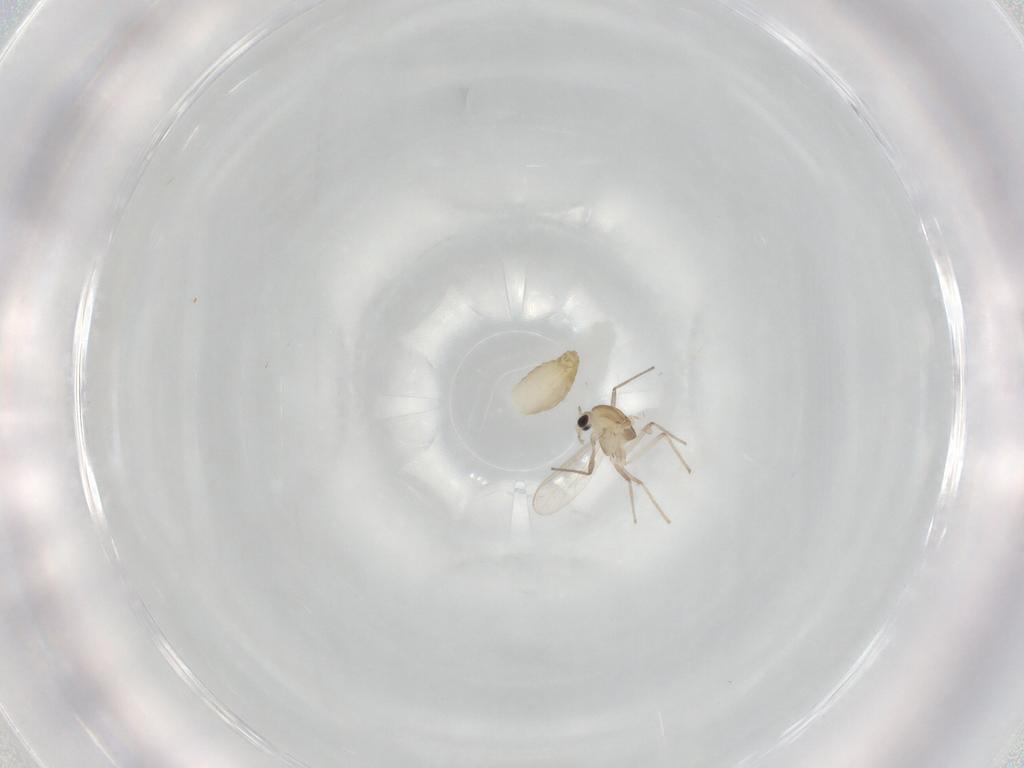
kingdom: Animalia
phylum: Arthropoda
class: Insecta
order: Diptera
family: Chironomidae
